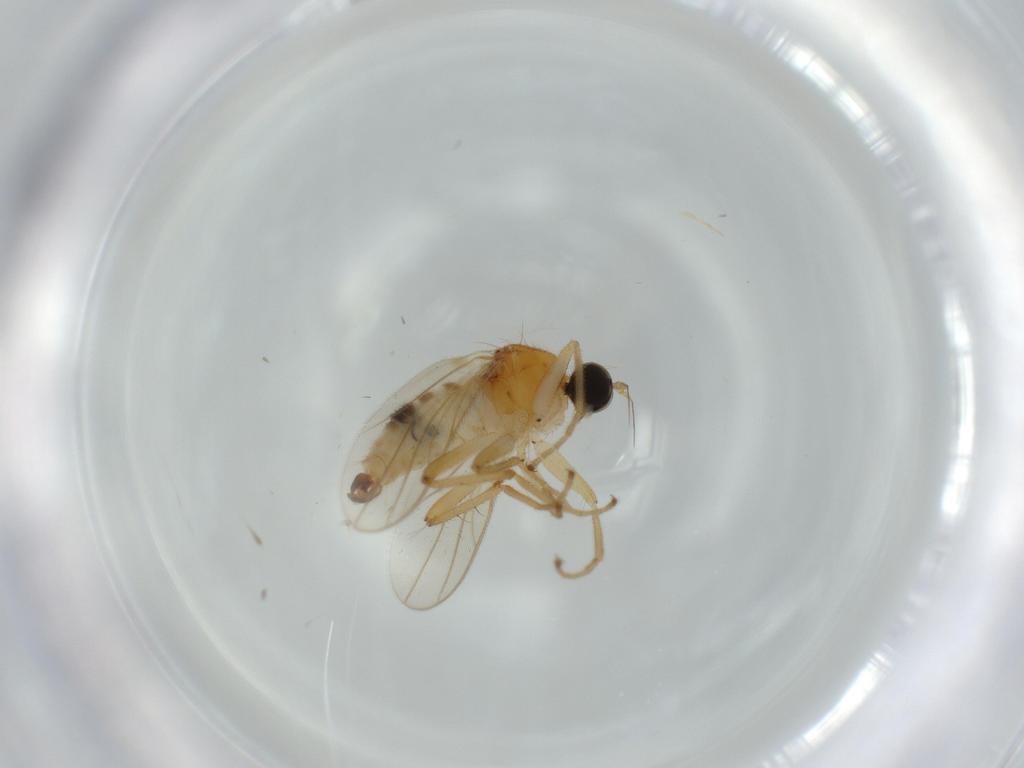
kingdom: Animalia
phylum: Arthropoda
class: Insecta
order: Diptera
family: Hybotidae
